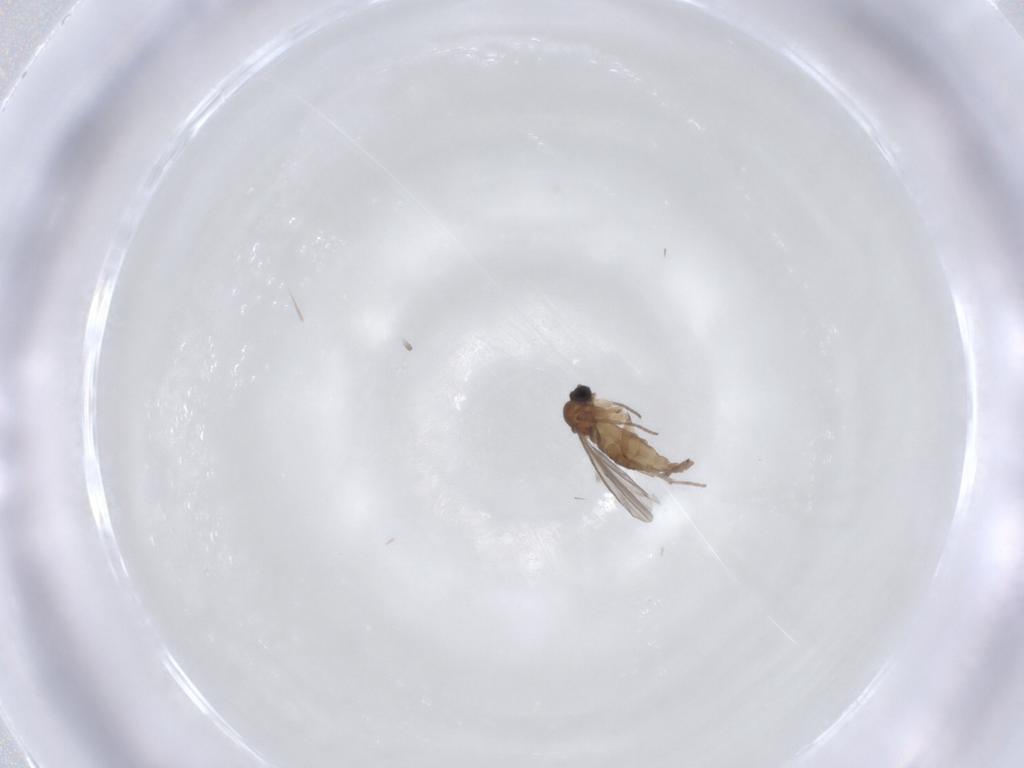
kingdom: Animalia
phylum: Arthropoda
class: Insecta
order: Diptera
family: Sciaridae
